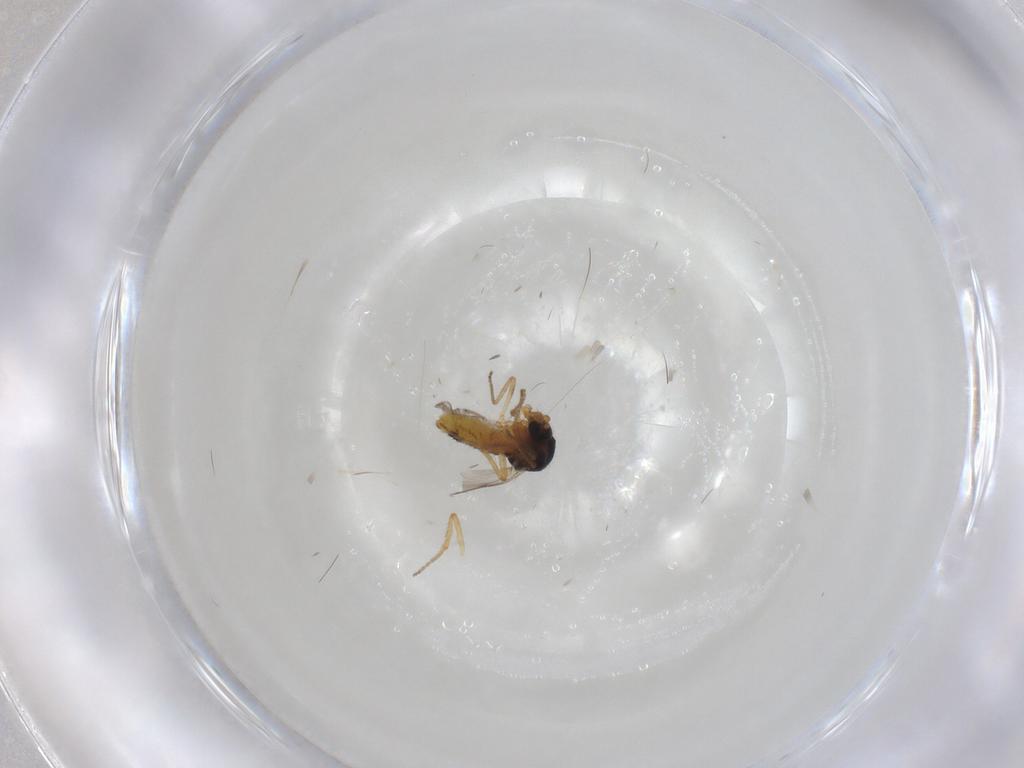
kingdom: Animalia
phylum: Arthropoda
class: Insecta
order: Diptera
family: Ceratopogonidae
